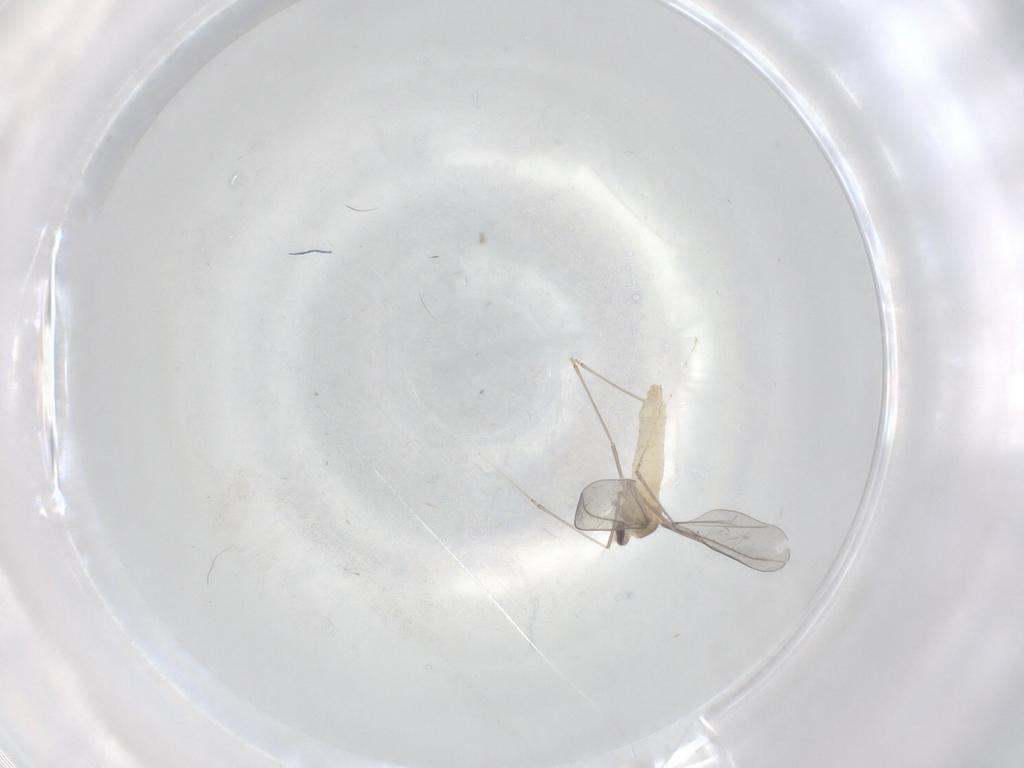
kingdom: Animalia
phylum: Arthropoda
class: Insecta
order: Diptera
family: Cecidomyiidae
